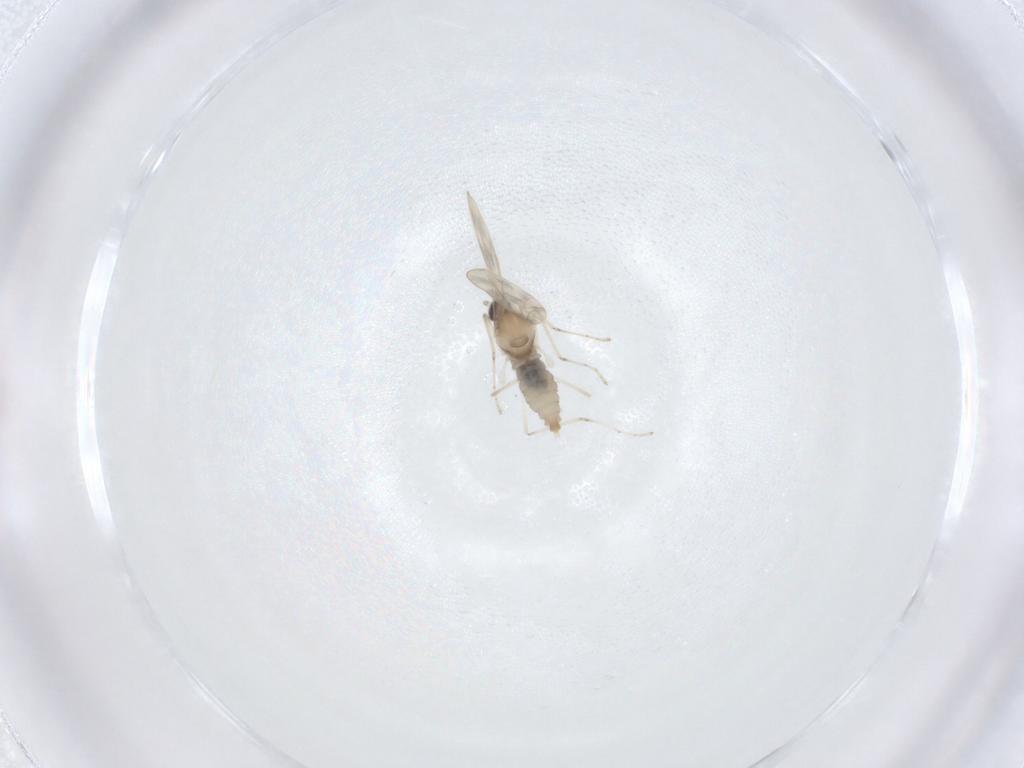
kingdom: Animalia
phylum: Arthropoda
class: Insecta
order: Diptera
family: Cecidomyiidae
